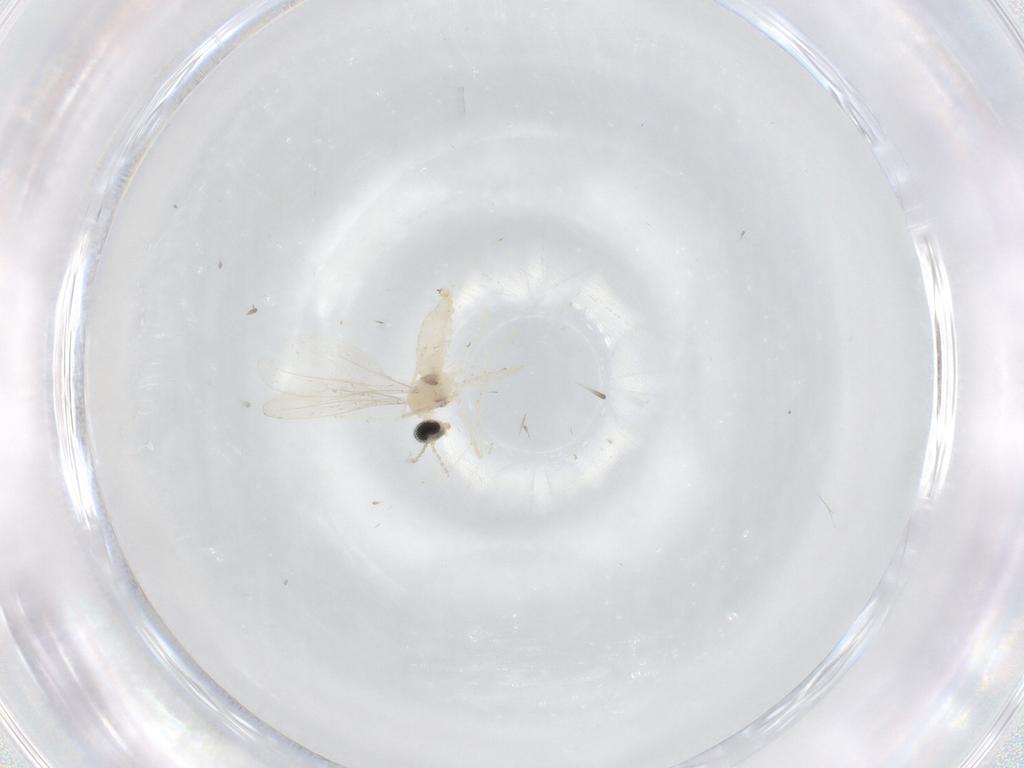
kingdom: Animalia
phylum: Arthropoda
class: Insecta
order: Diptera
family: Cecidomyiidae
